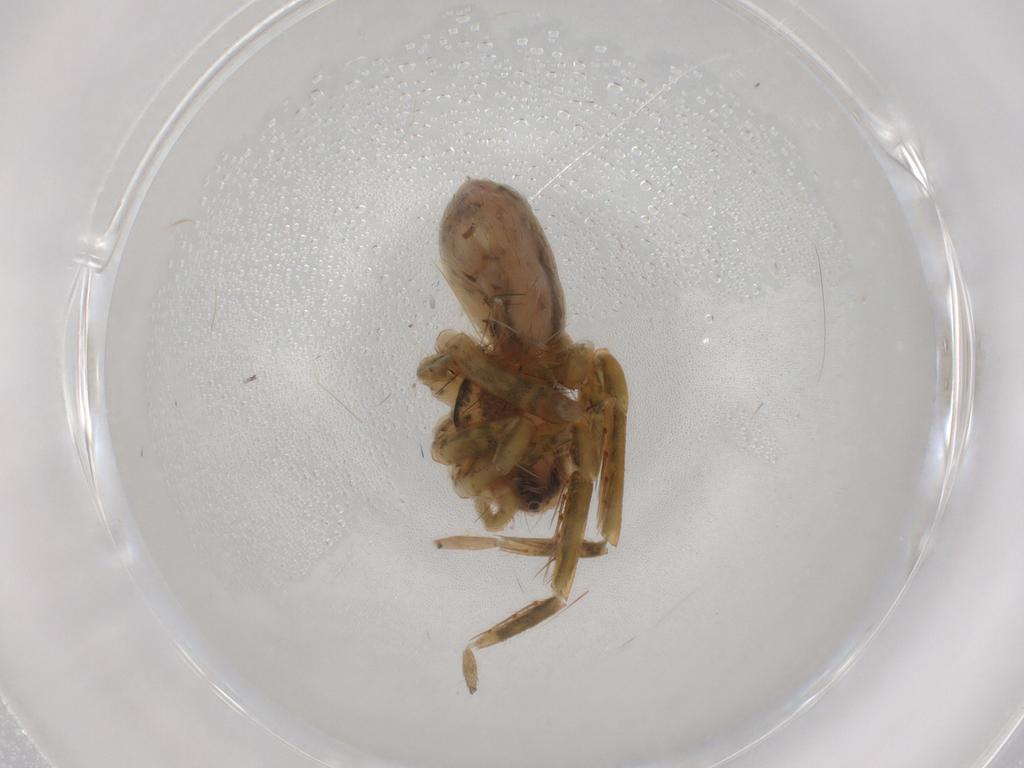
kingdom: Animalia
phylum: Arthropoda
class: Arachnida
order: Araneae
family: Ctenidae
